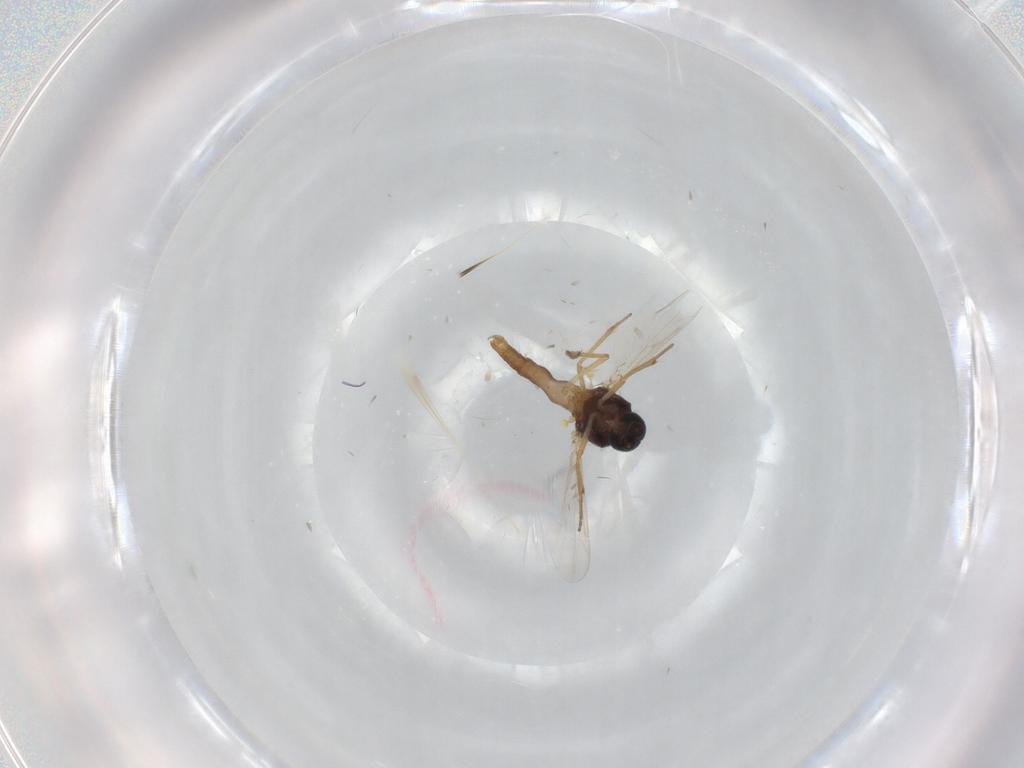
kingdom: Animalia
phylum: Arthropoda
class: Insecta
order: Diptera
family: Ceratopogonidae
